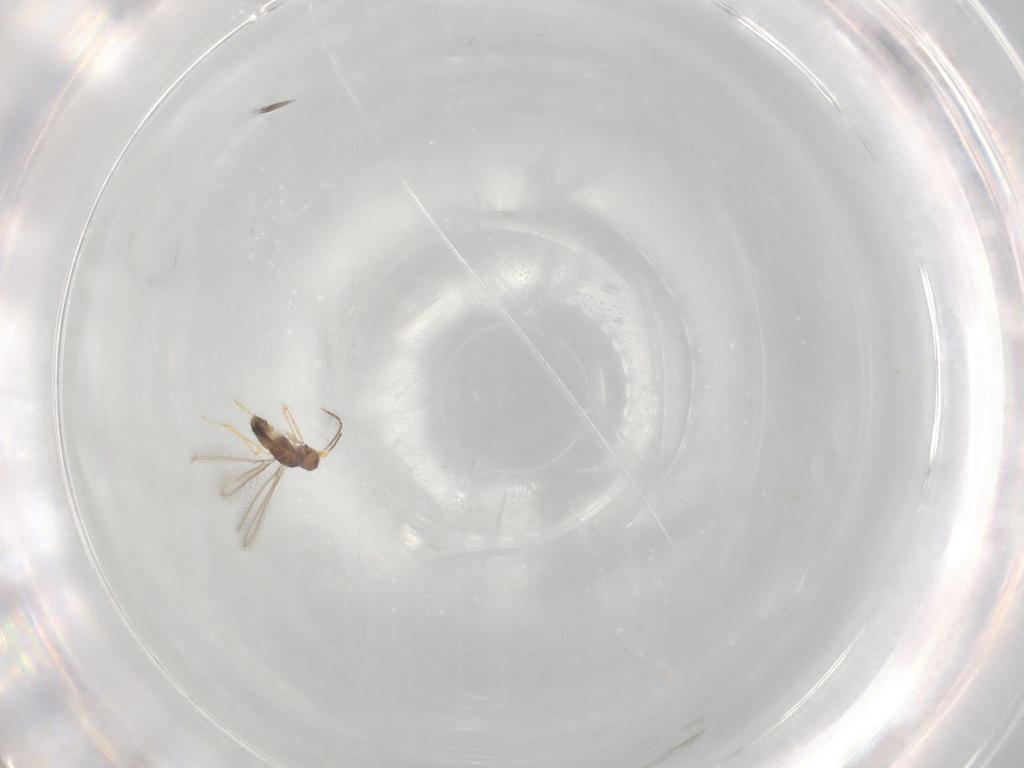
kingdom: Animalia
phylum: Arthropoda
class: Insecta
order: Hymenoptera
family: Mymaridae
